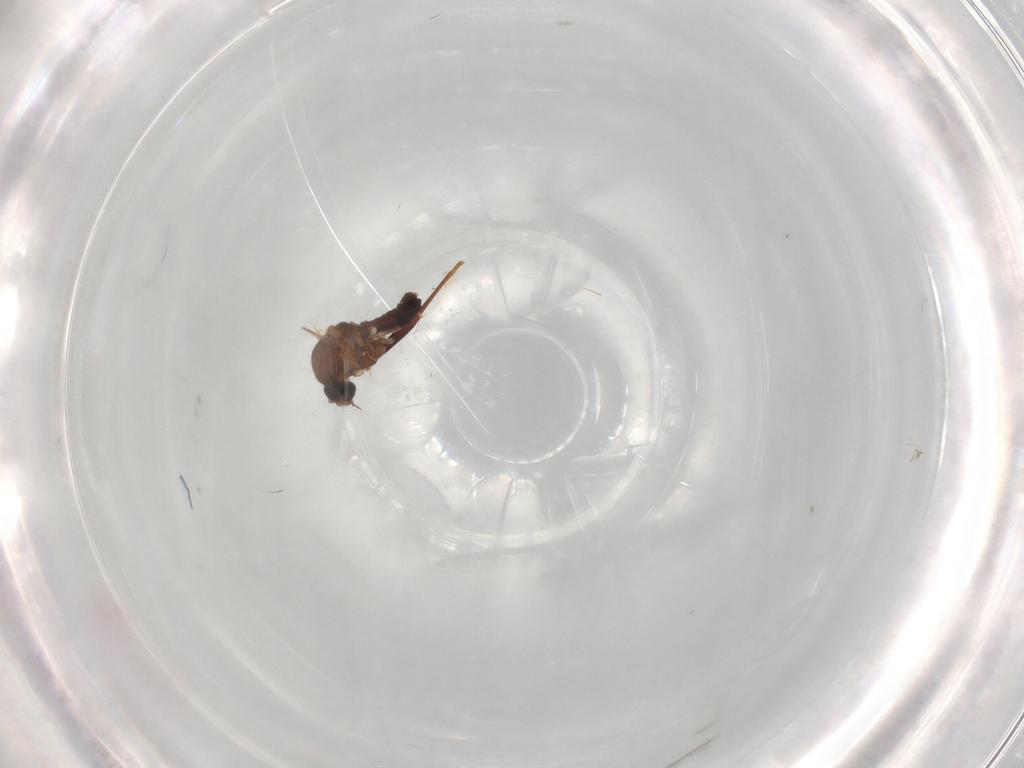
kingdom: Animalia
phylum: Arthropoda
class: Insecta
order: Diptera
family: Ceratopogonidae
